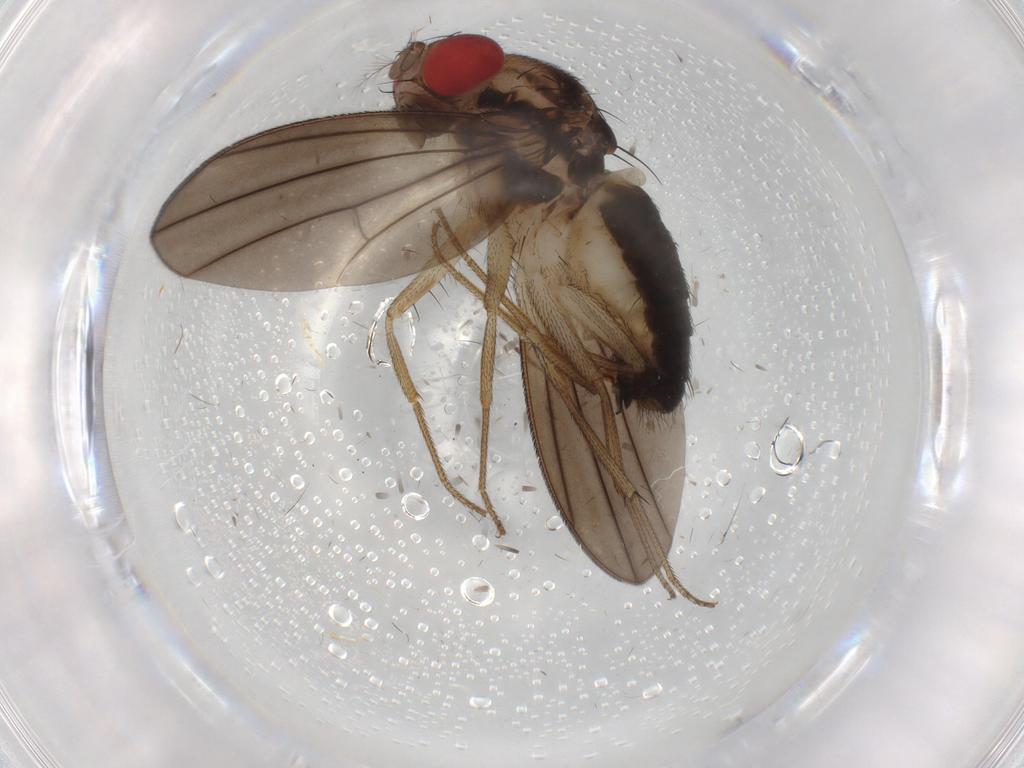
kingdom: Animalia
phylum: Arthropoda
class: Insecta
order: Diptera
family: Drosophilidae
